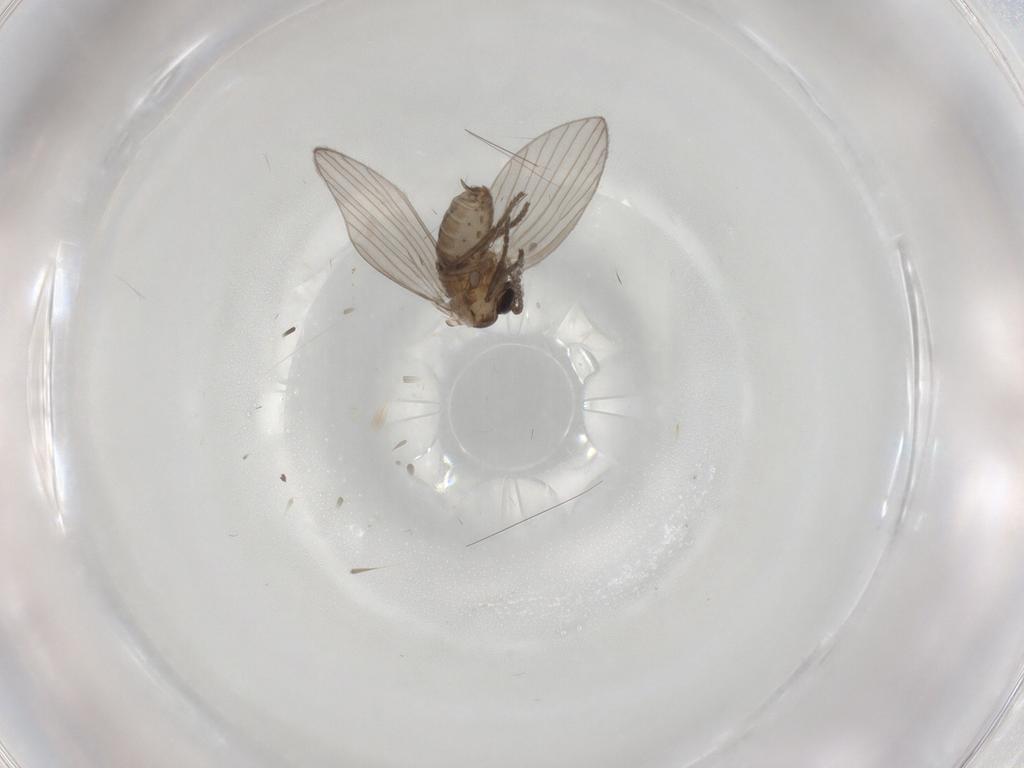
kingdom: Animalia
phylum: Arthropoda
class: Insecta
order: Diptera
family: Psychodidae
